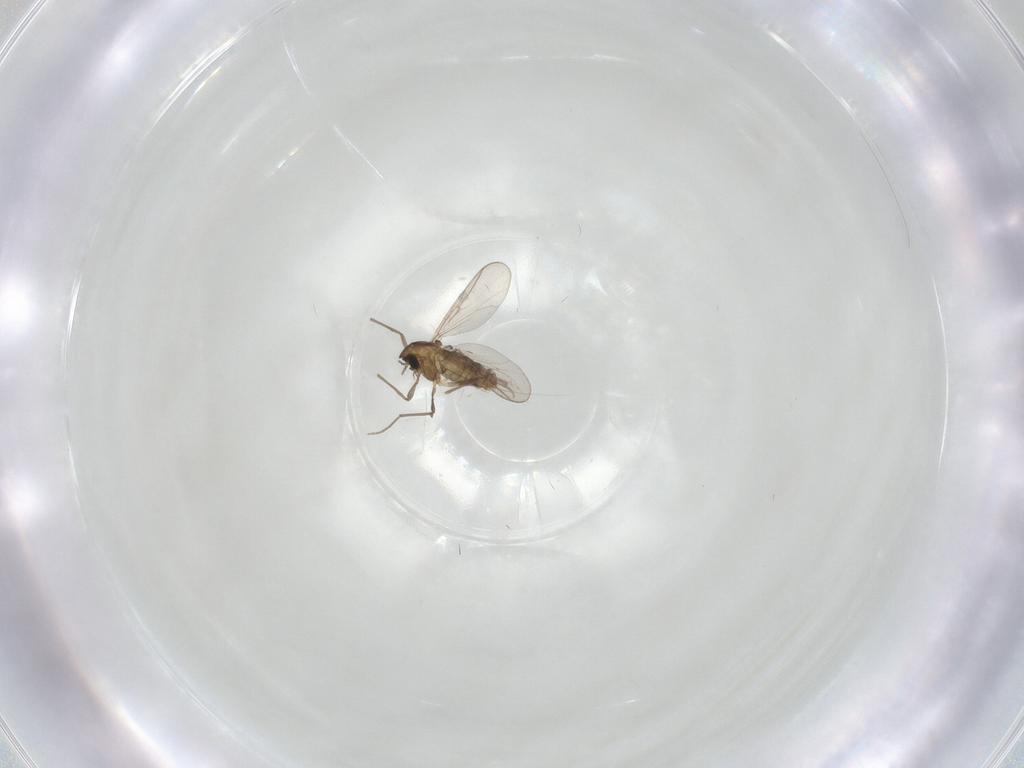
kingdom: Animalia
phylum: Arthropoda
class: Insecta
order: Diptera
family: Chironomidae
